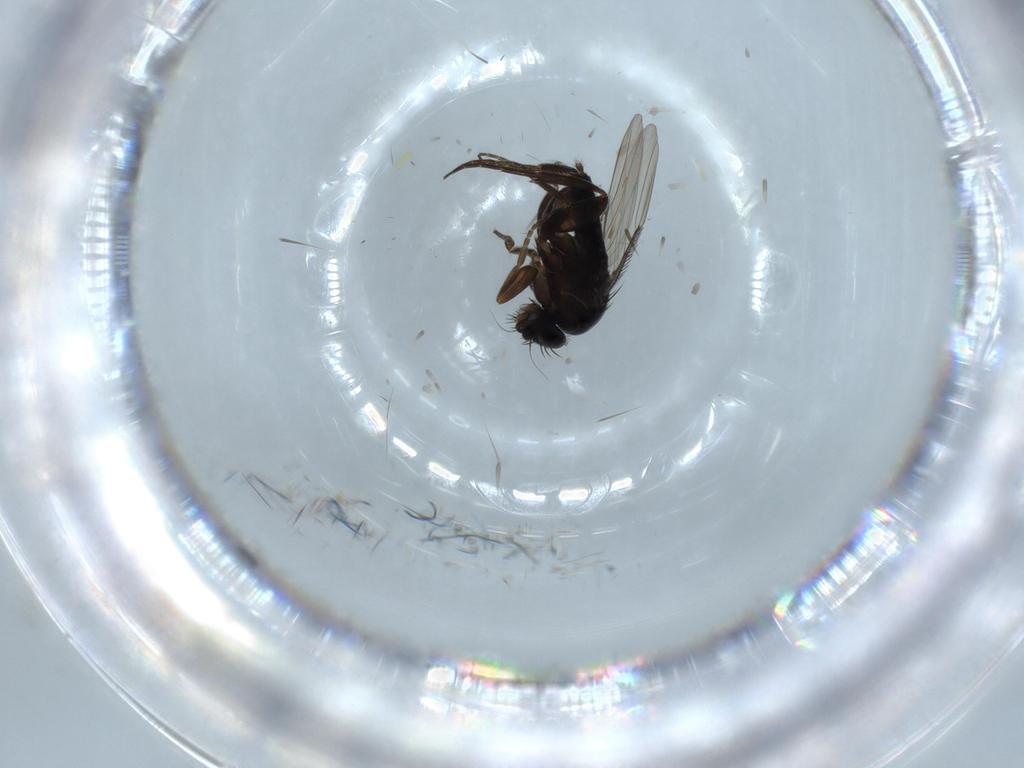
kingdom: Animalia
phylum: Arthropoda
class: Insecta
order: Diptera
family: Phoridae
